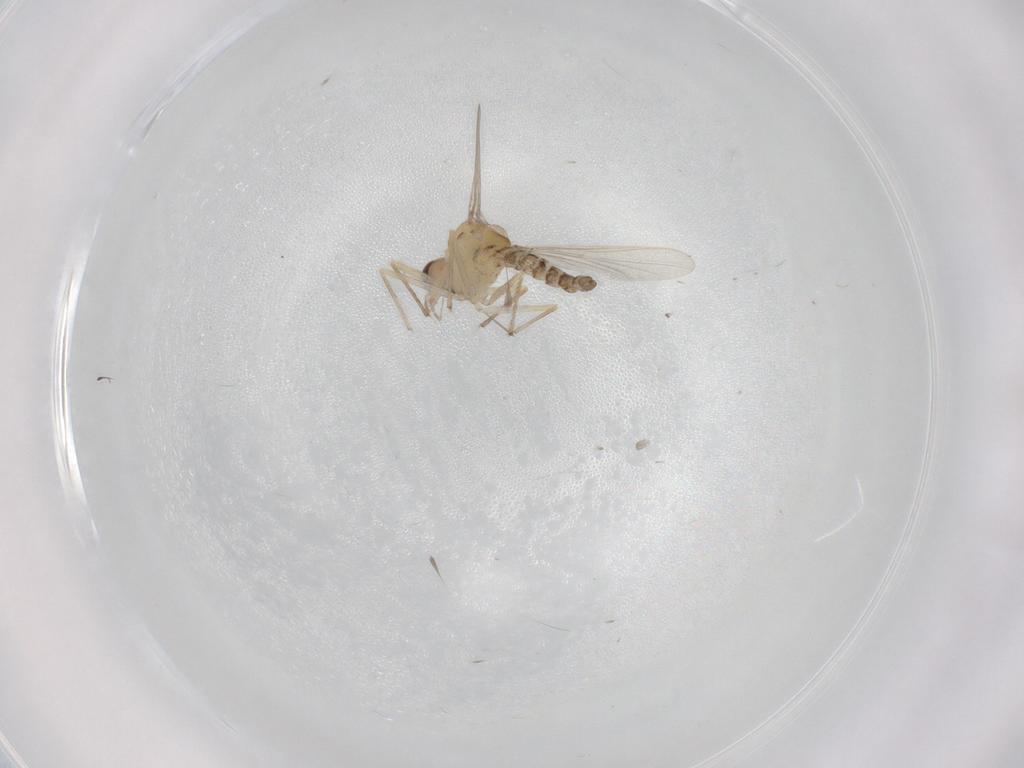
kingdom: Animalia
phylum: Arthropoda
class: Insecta
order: Diptera
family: Chironomidae
